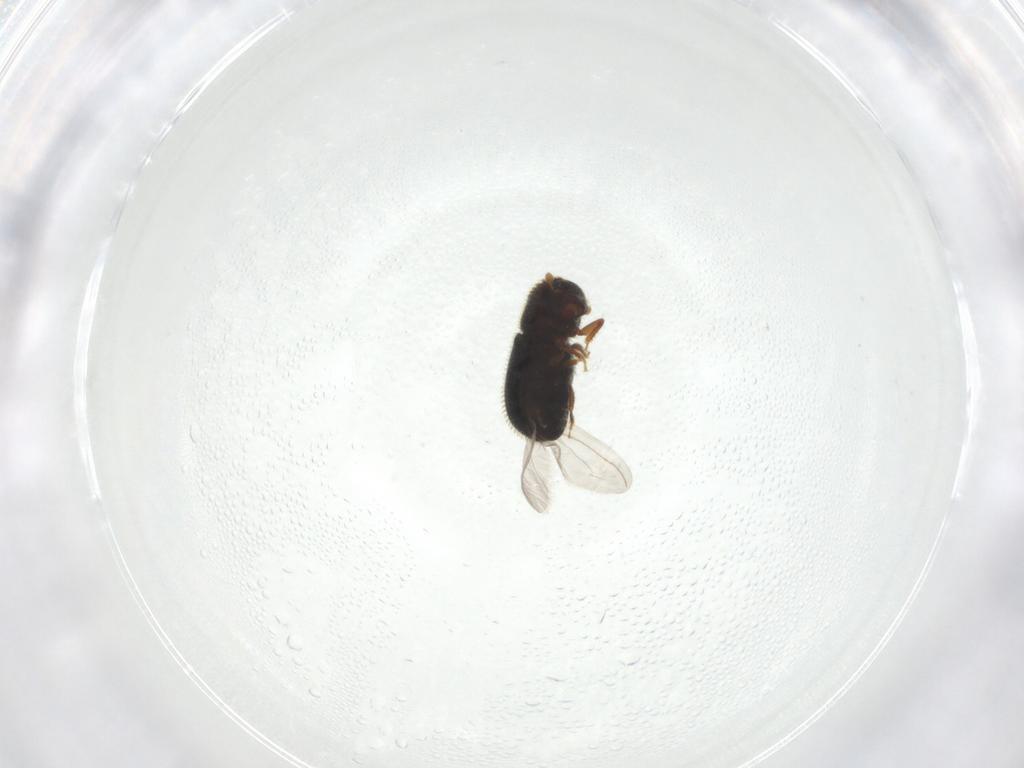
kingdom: Animalia
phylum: Arthropoda
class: Insecta
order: Coleoptera
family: Curculionidae
